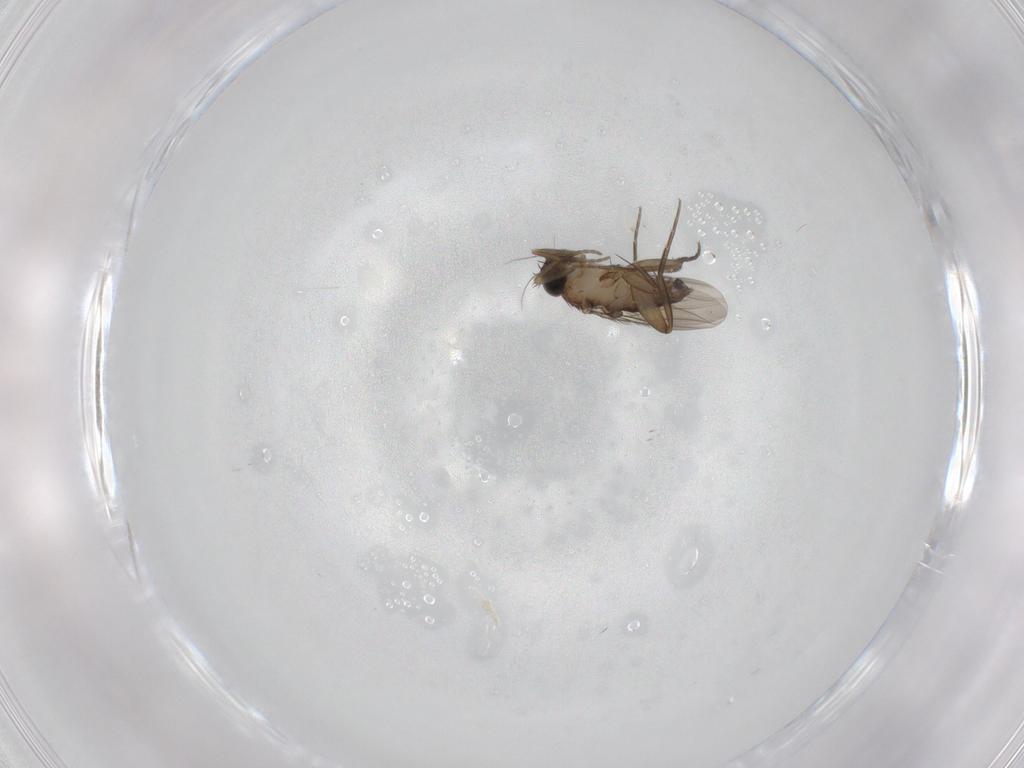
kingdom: Animalia
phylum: Arthropoda
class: Insecta
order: Diptera
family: Phoridae
